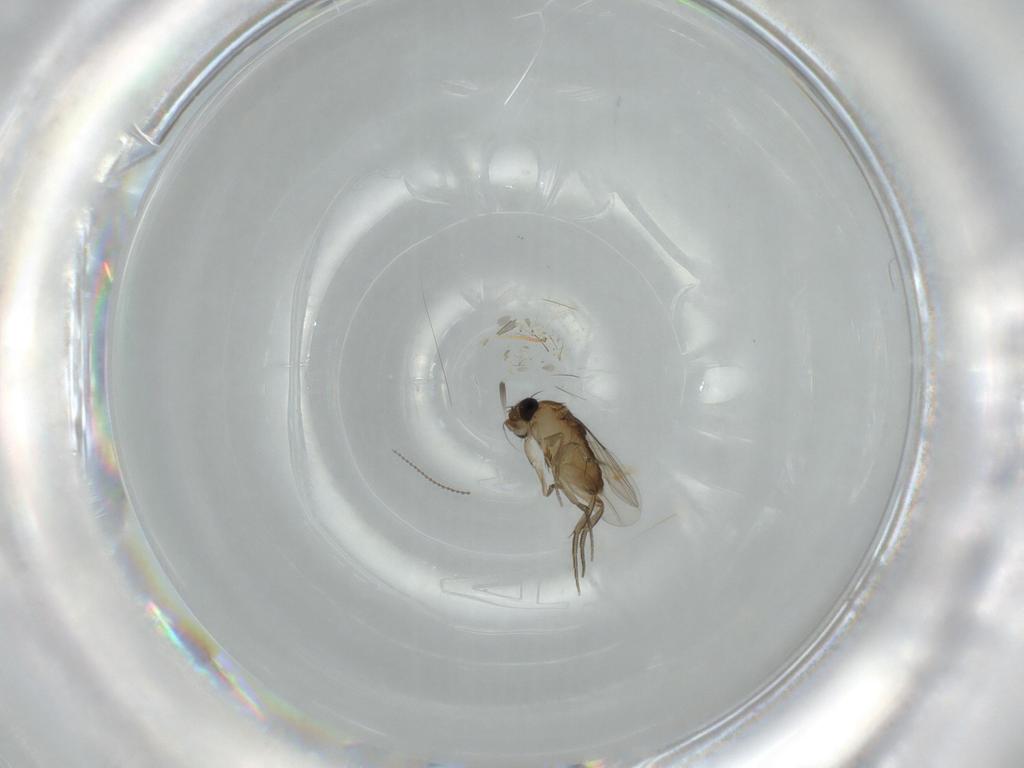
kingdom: Animalia
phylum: Arthropoda
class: Insecta
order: Diptera
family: Phoridae
